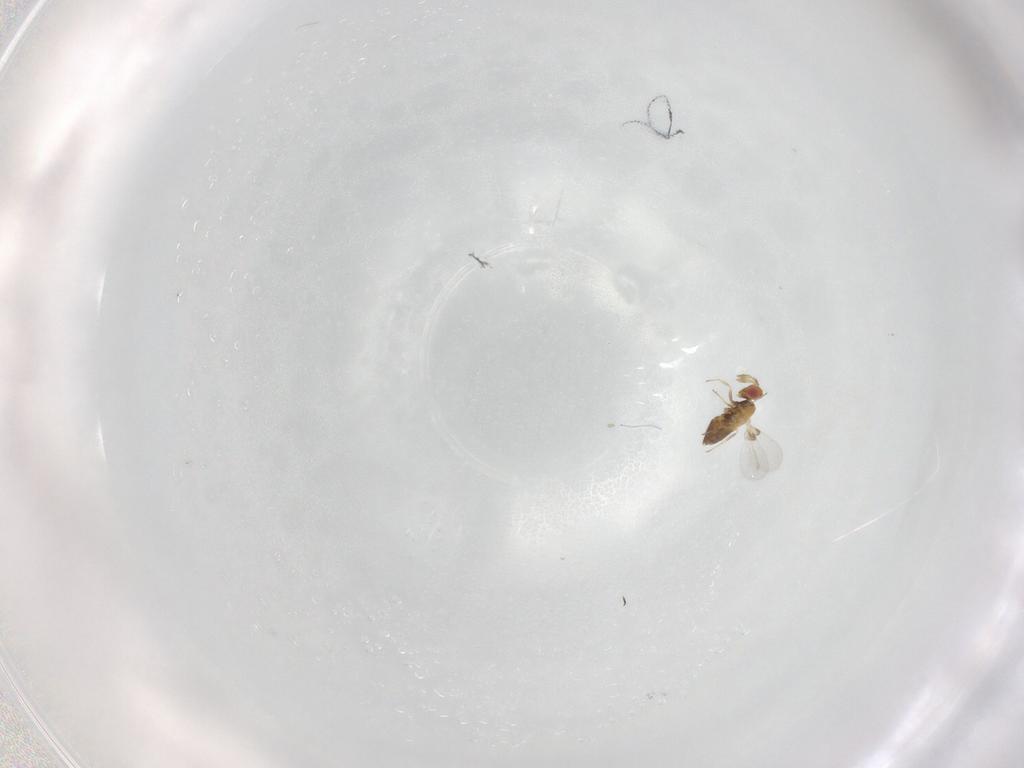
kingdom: Animalia
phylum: Arthropoda
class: Insecta
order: Hymenoptera
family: Trichogrammatidae
